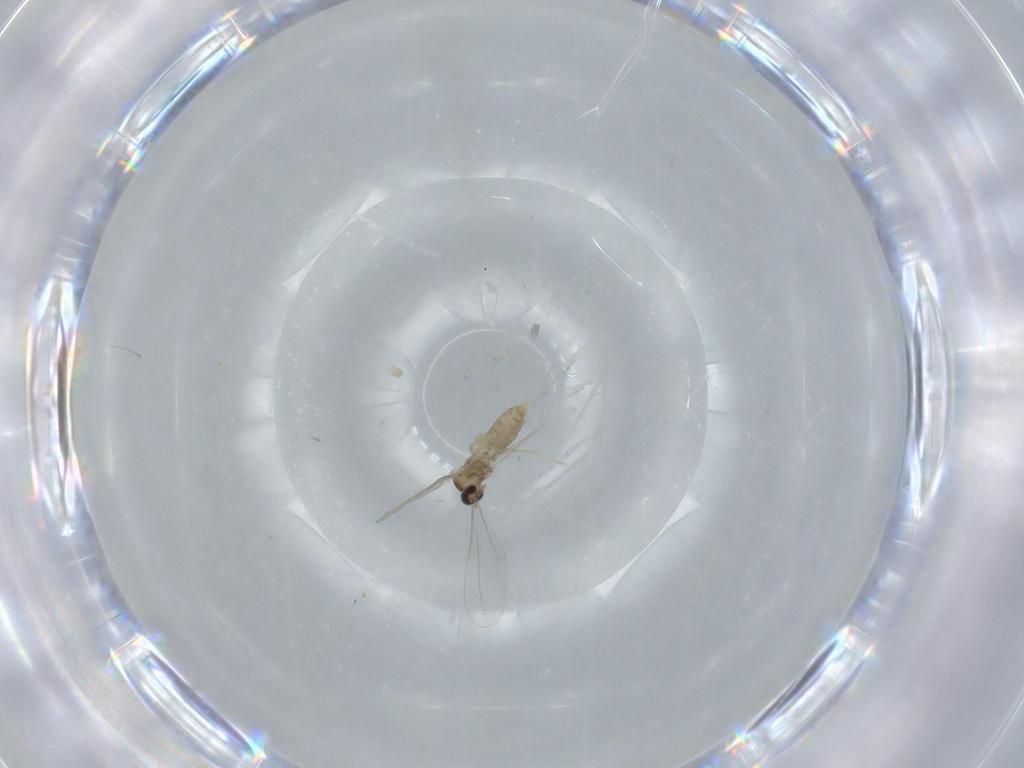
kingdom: Animalia
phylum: Arthropoda
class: Insecta
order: Diptera
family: Cecidomyiidae
